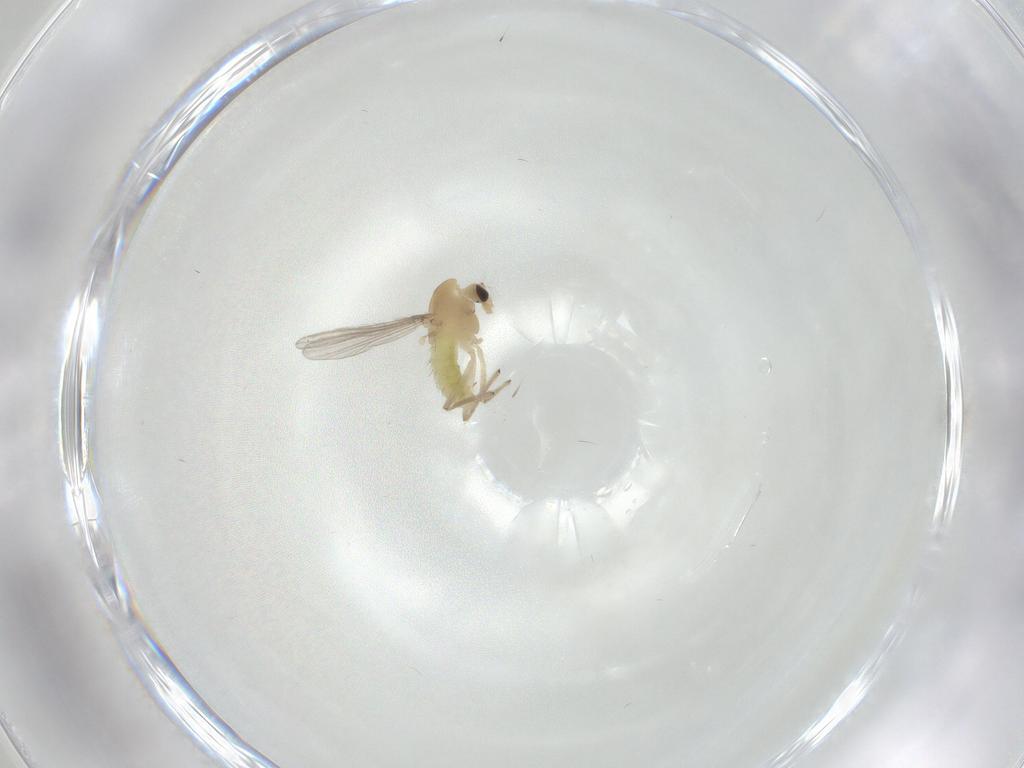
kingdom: Animalia
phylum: Arthropoda
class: Insecta
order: Diptera
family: Chironomidae
